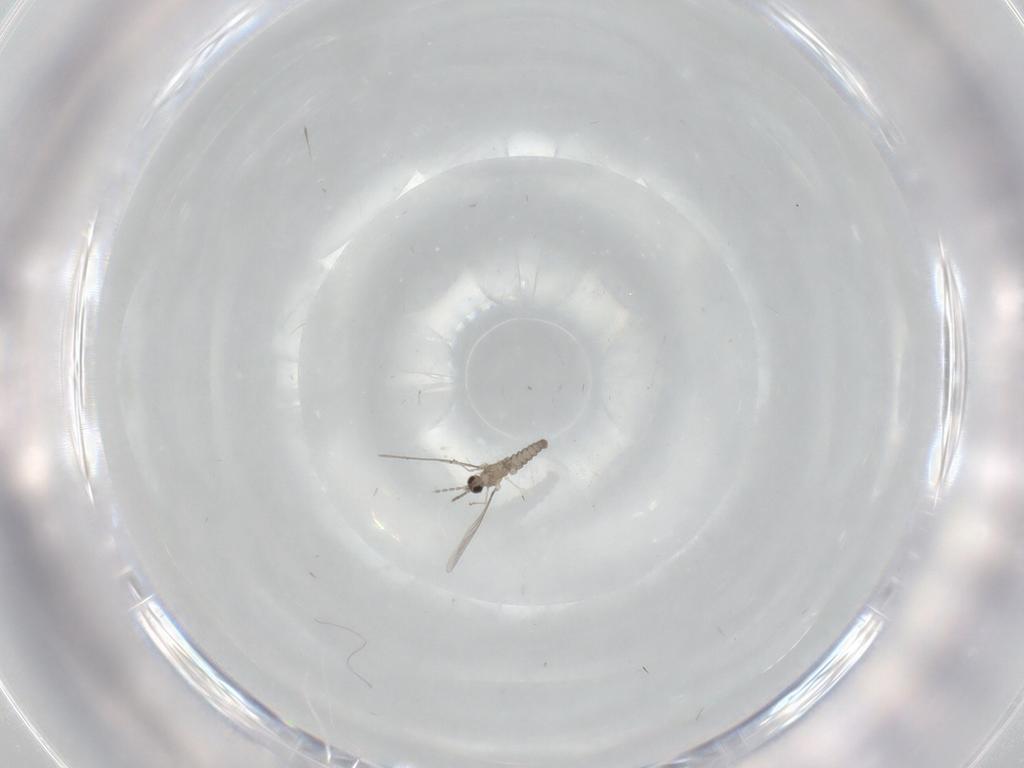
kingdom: Animalia
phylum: Arthropoda
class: Insecta
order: Diptera
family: Cecidomyiidae
